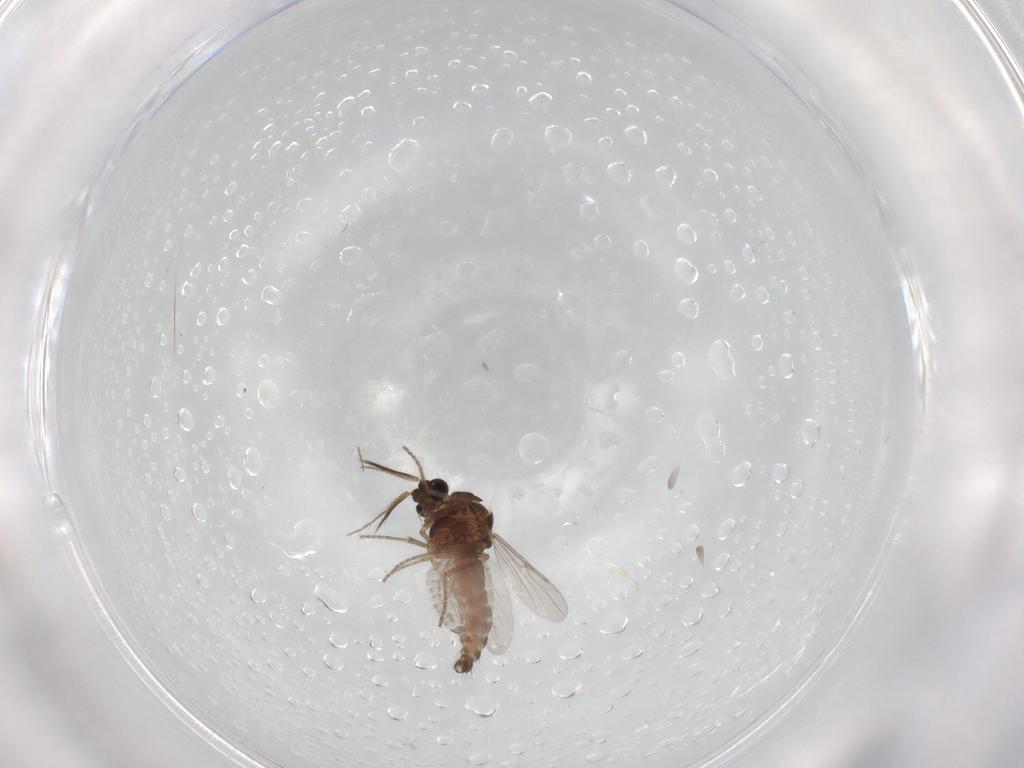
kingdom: Animalia
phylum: Arthropoda
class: Insecta
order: Diptera
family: Ceratopogonidae
